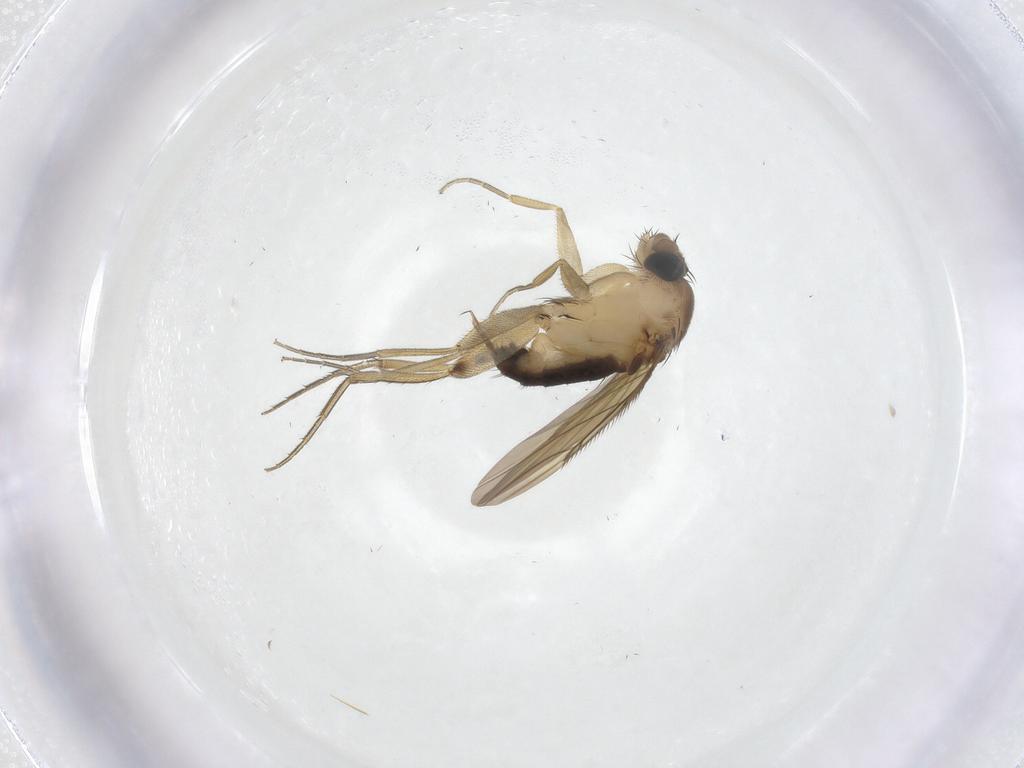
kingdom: Animalia
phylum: Arthropoda
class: Insecta
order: Diptera
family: Phoridae
